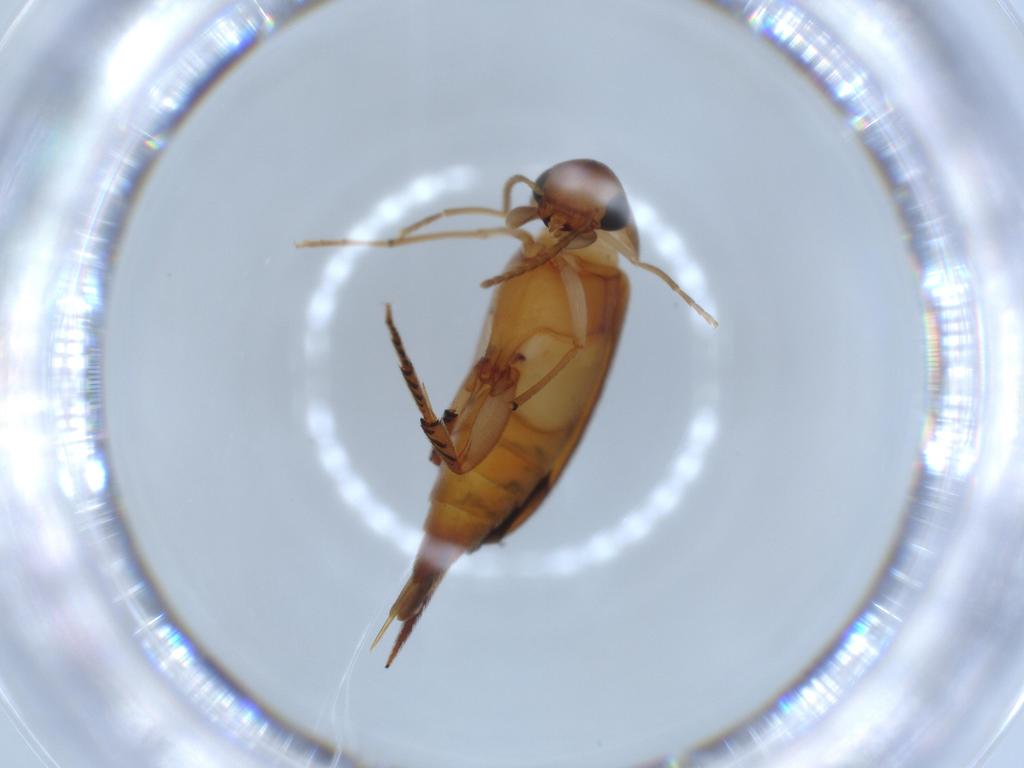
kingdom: Animalia
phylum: Arthropoda
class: Insecta
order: Coleoptera
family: Mordellidae
